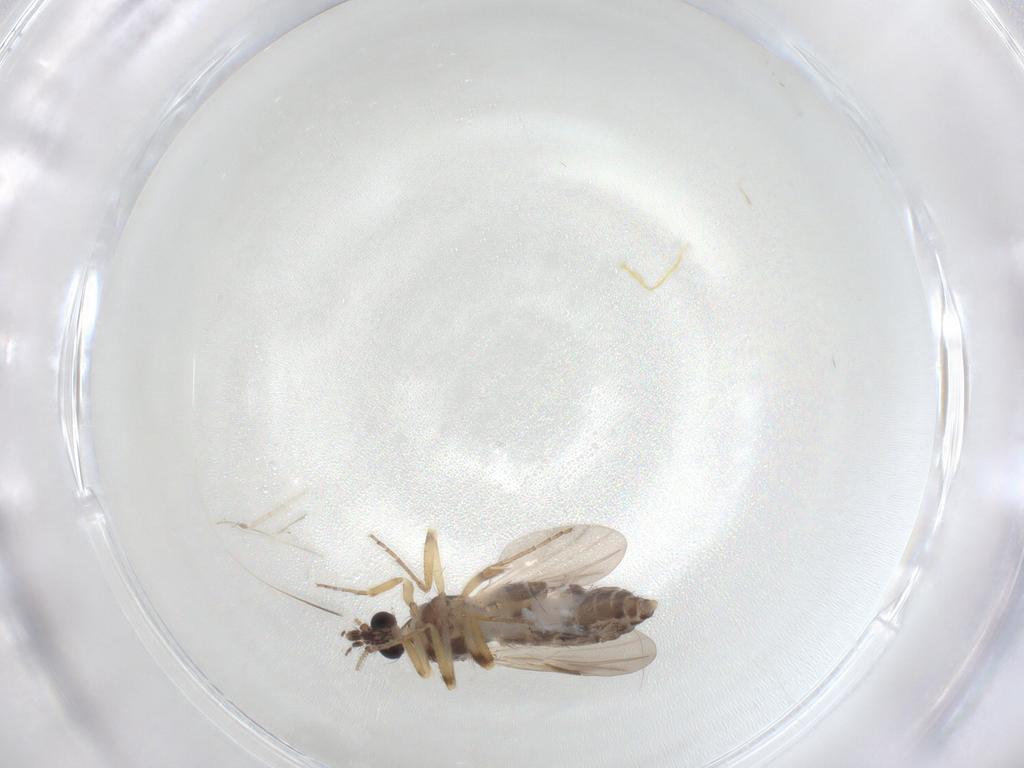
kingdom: Animalia
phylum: Arthropoda
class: Insecta
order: Diptera
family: Ceratopogonidae
